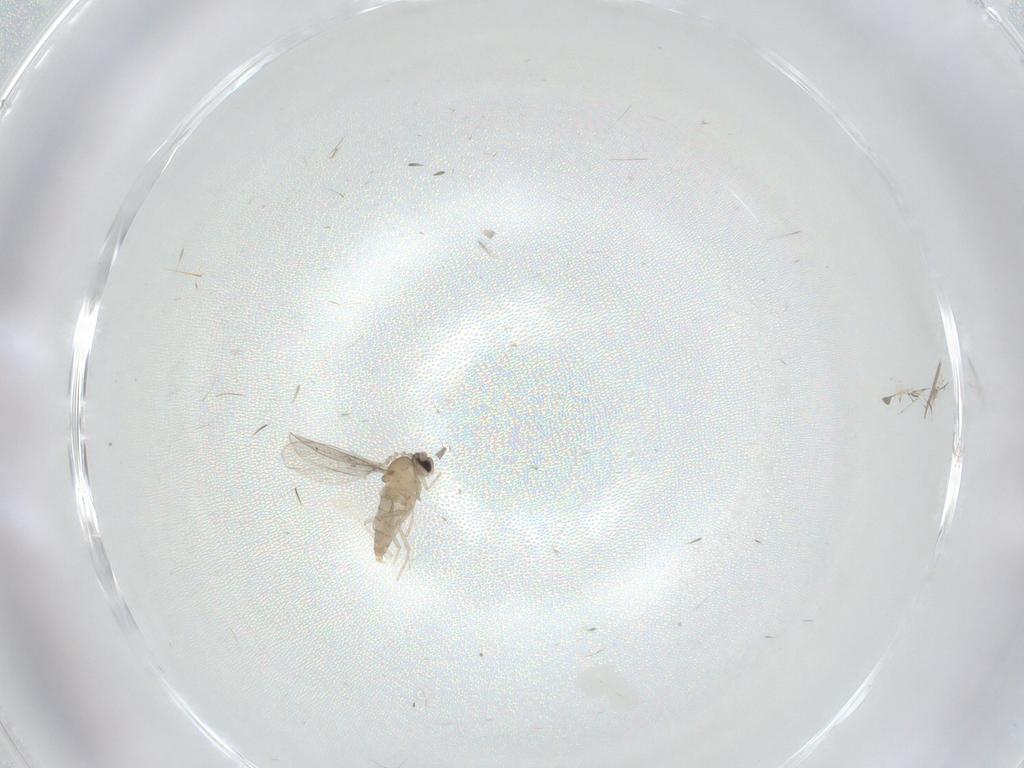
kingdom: Animalia
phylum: Arthropoda
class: Insecta
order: Diptera
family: Cecidomyiidae
